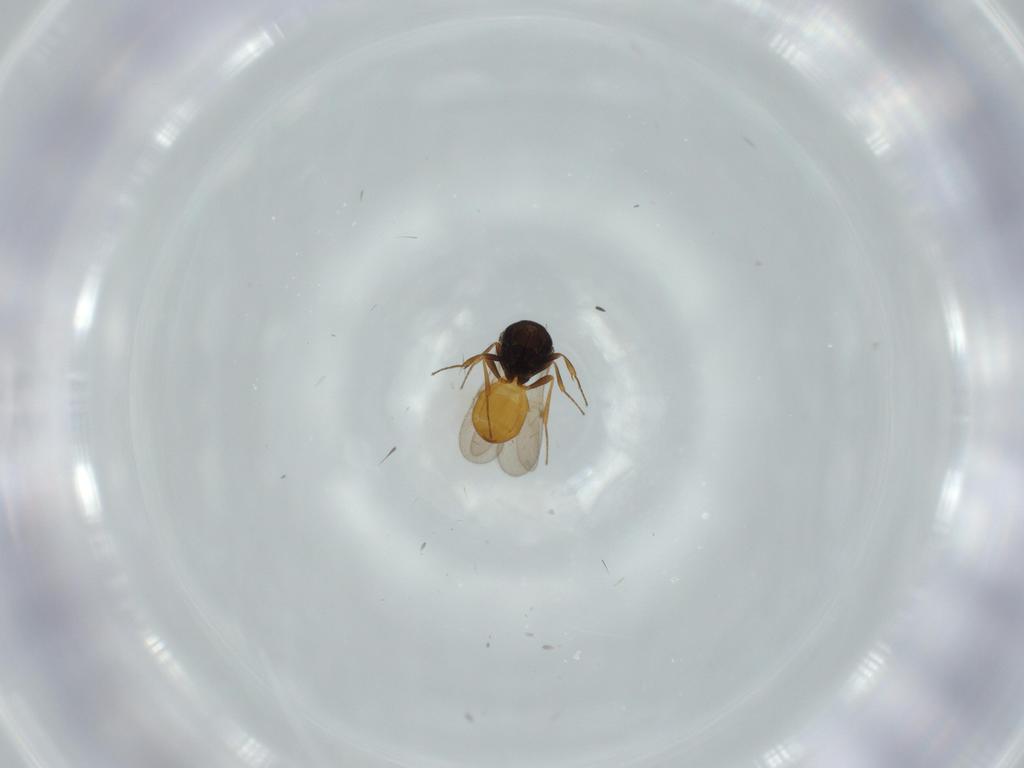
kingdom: Animalia
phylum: Arthropoda
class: Insecta
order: Hymenoptera
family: Scelionidae
